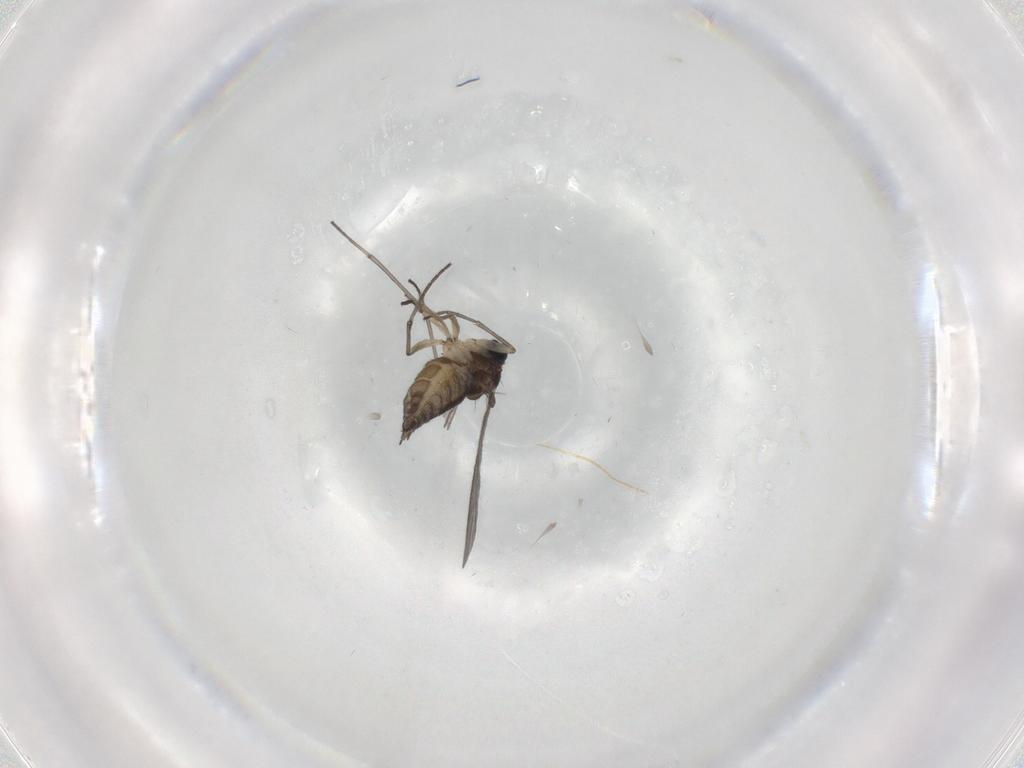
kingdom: Animalia
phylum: Arthropoda
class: Insecta
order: Diptera
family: Sciaridae
